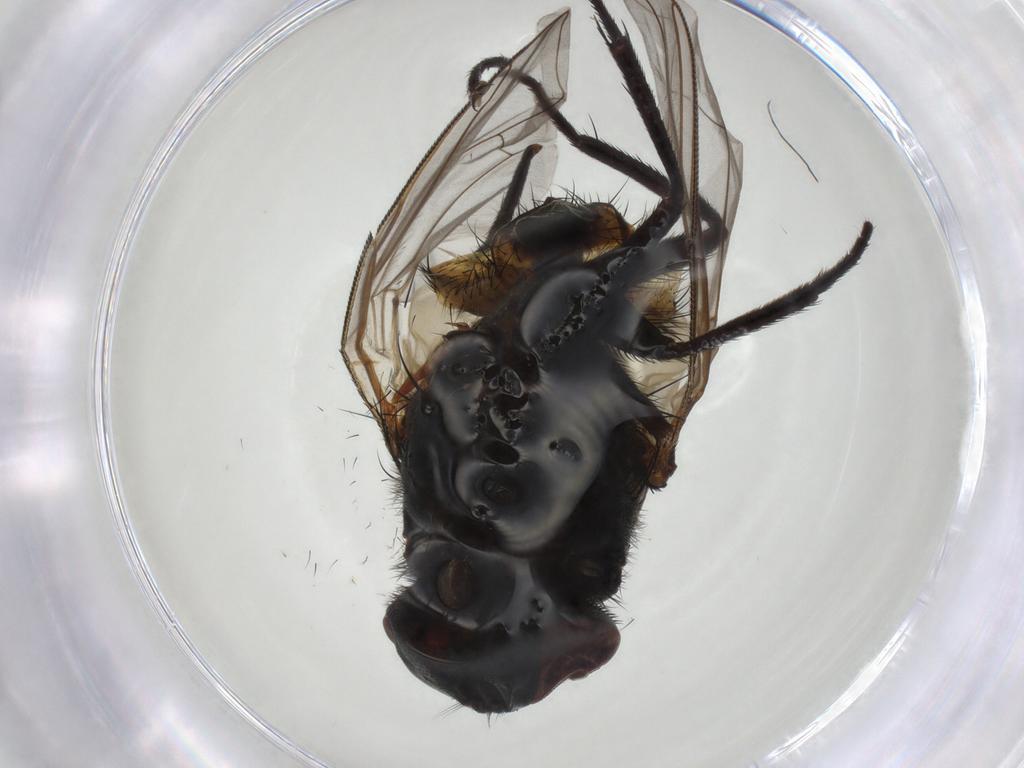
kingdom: Animalia
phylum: Arthropoda
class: Insecta
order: Diptera
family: Muscidae
